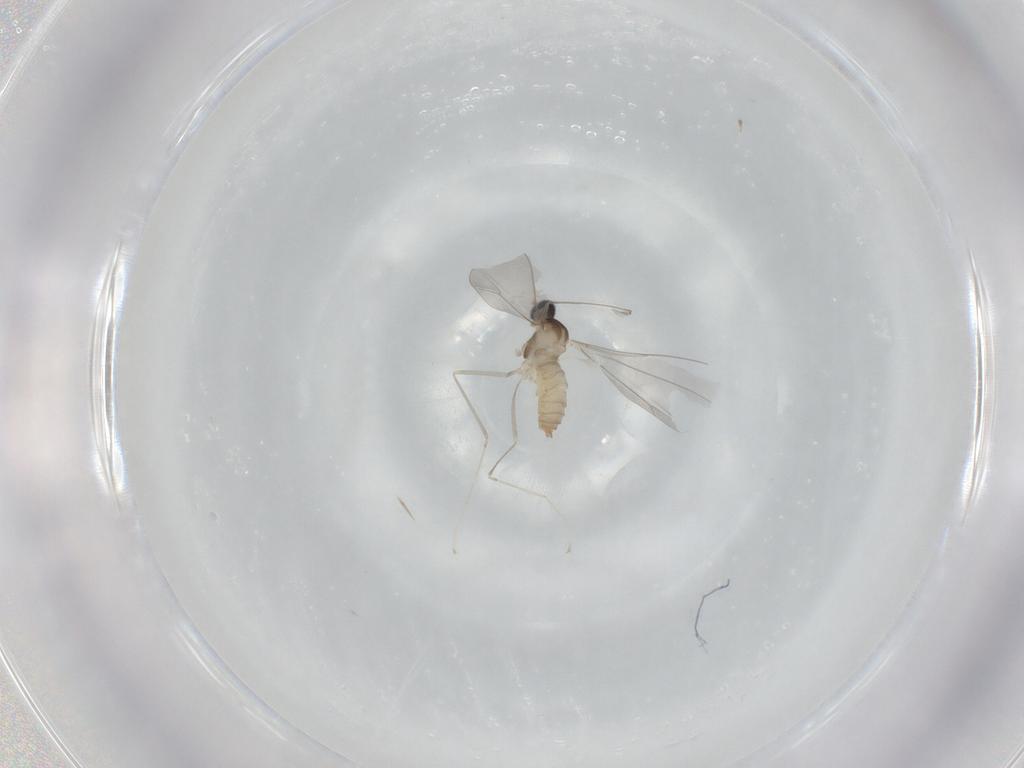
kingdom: Animalia
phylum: Arthropoda
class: Insecta
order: Diptera
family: Cecidomyiidae
